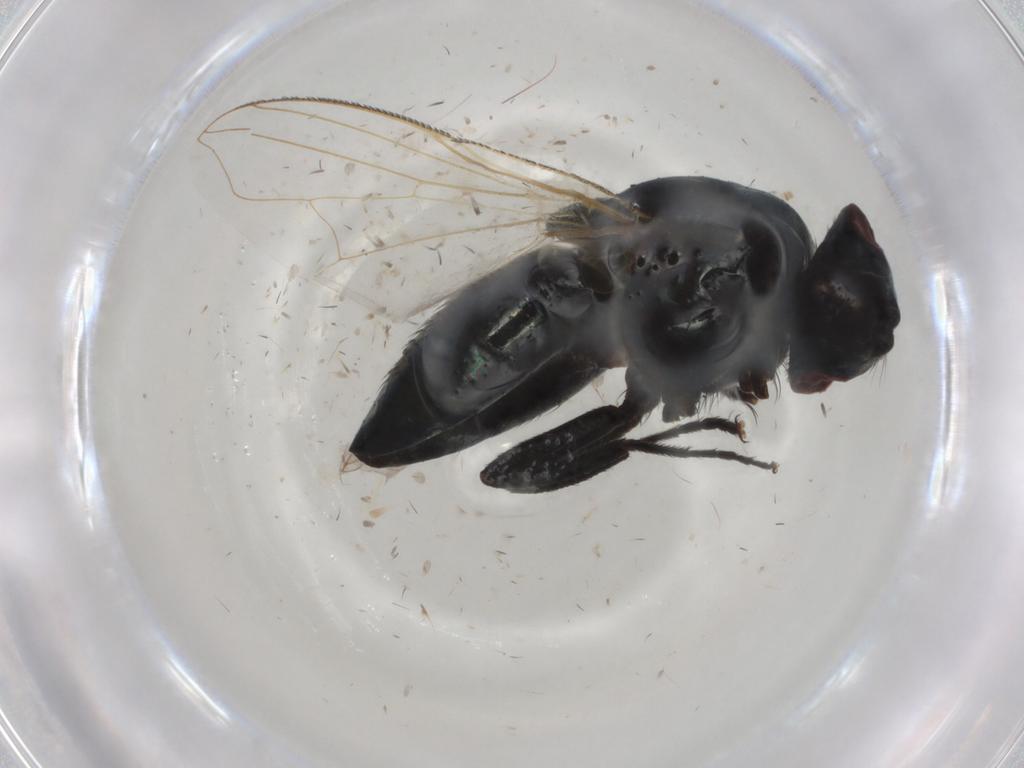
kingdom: Animalia
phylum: Arthropoda
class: Insecta
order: Diptera
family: Muscidae
